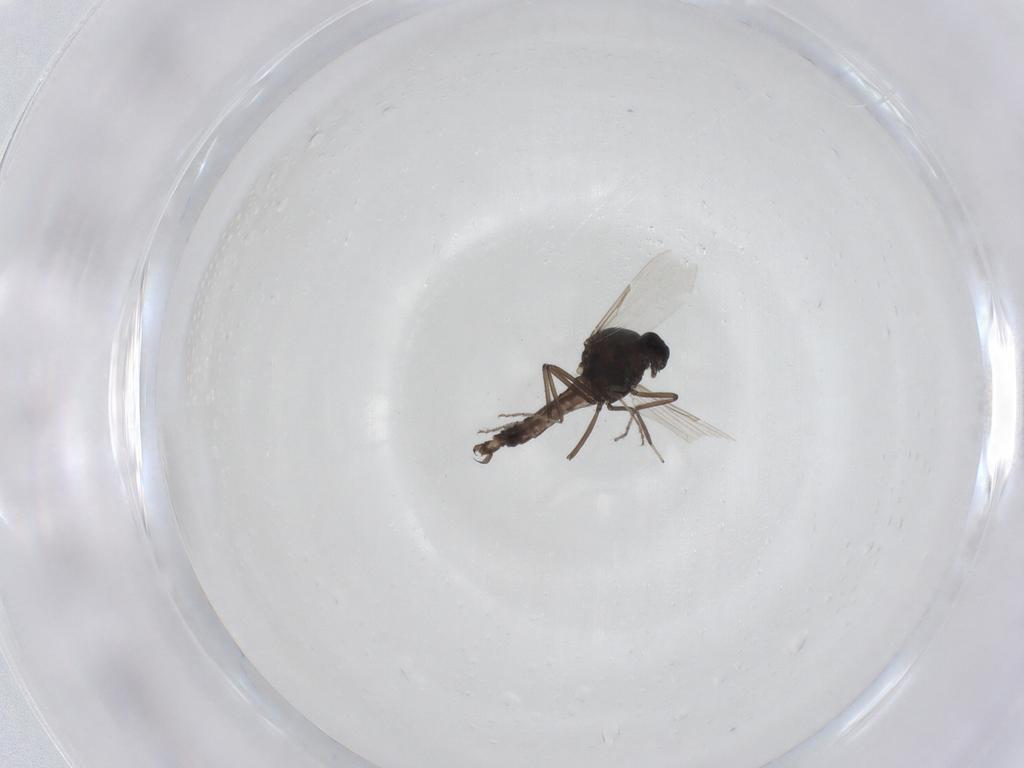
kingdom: Animalia
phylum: Arthropoda
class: Insecta
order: Diptera
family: Ceratopogonidae
